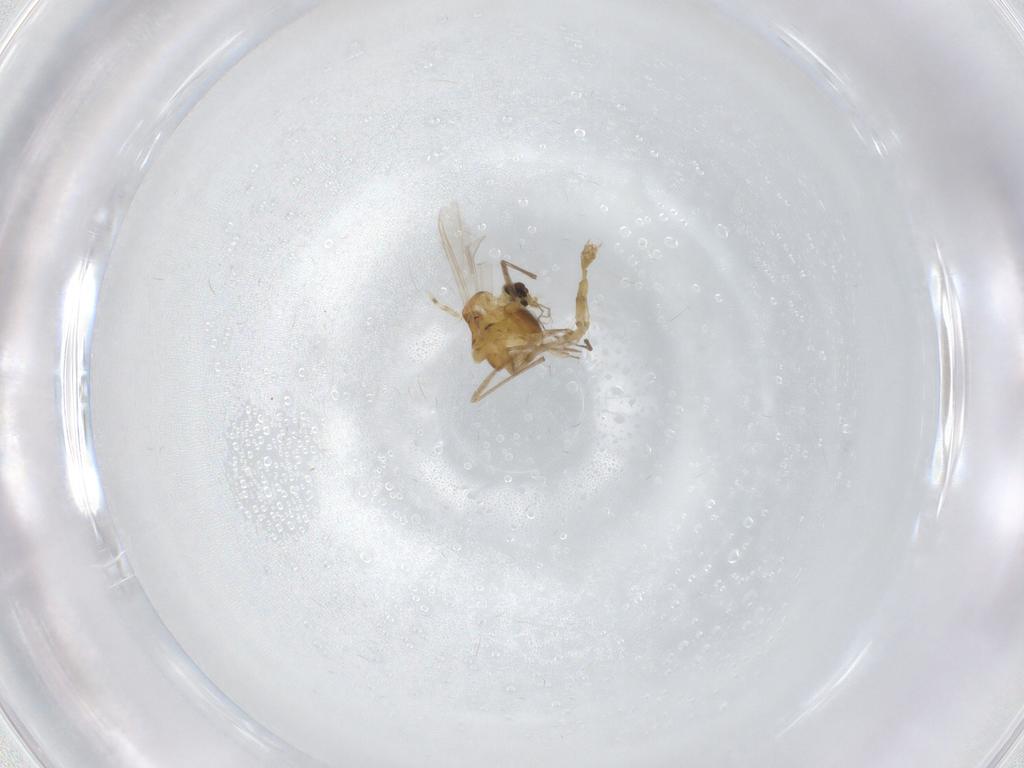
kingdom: Animalia
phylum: Arthropoda
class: Insecta
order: Diptera
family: Chironomidae
